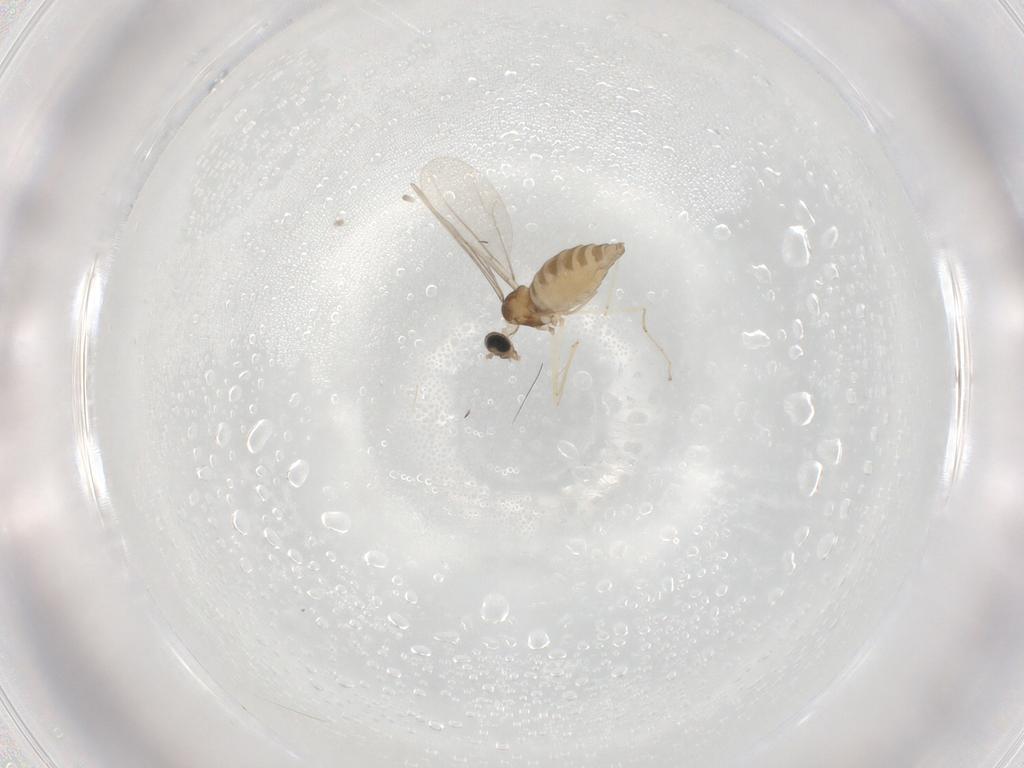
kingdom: Animalia
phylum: Arthropoda
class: Insecta
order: Diptera
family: Cecidomyiidae
